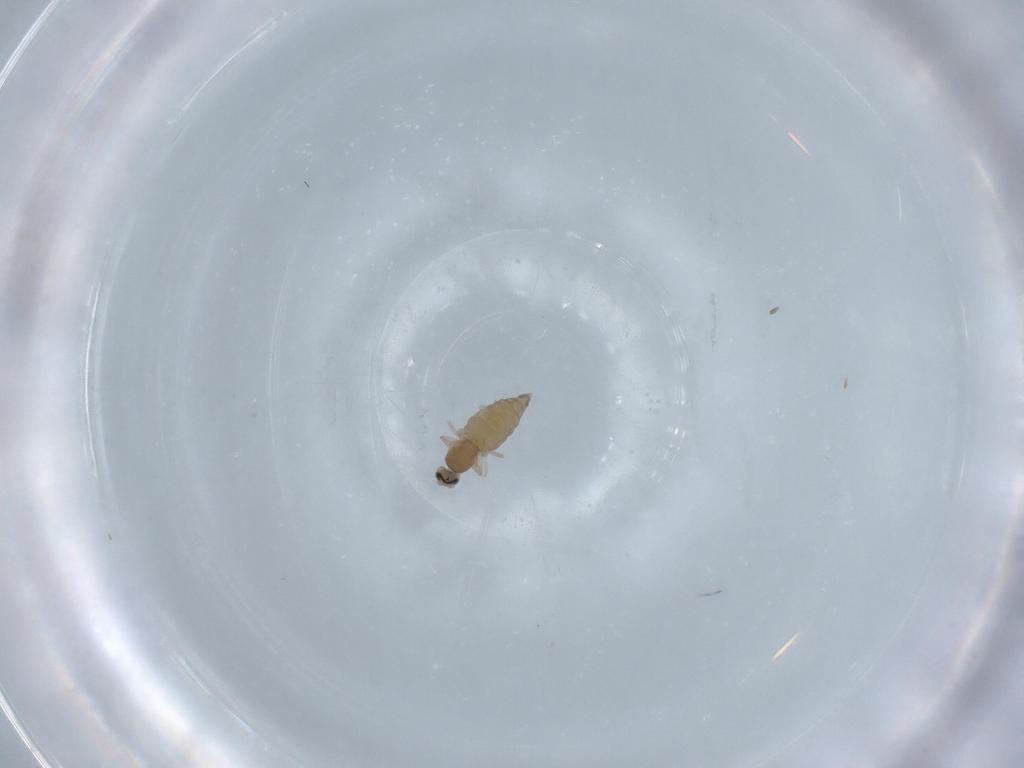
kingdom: Animalia
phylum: Arthropoda
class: Insecta
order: Diptera
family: Cecidomyiidae
